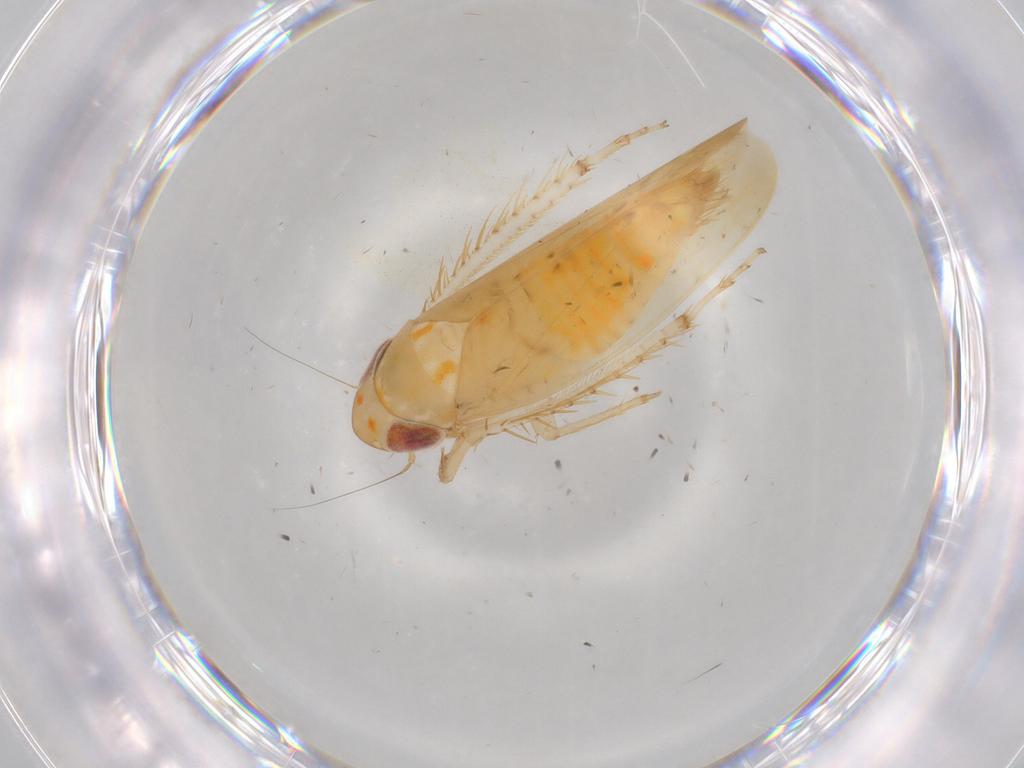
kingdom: Animalia
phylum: Arthropoda
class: Insecta
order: Hemiptera
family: Cicadellidae
